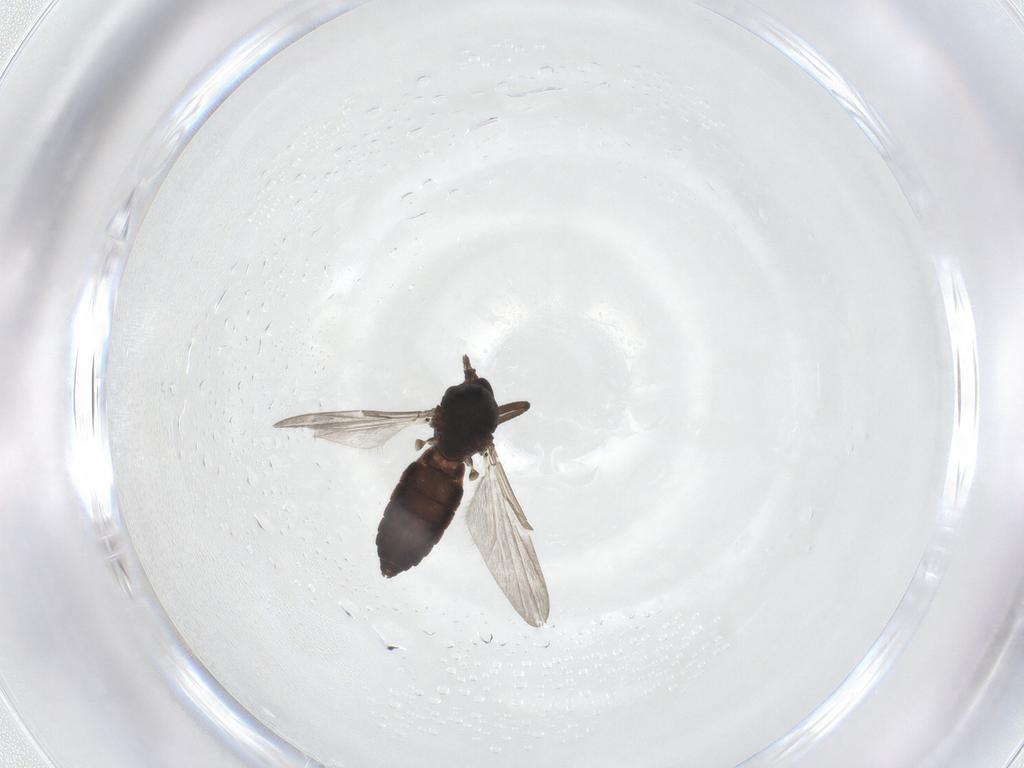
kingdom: Animalia
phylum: Arthropoda
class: Insecta
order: Diptera
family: Ceratopogonidae
